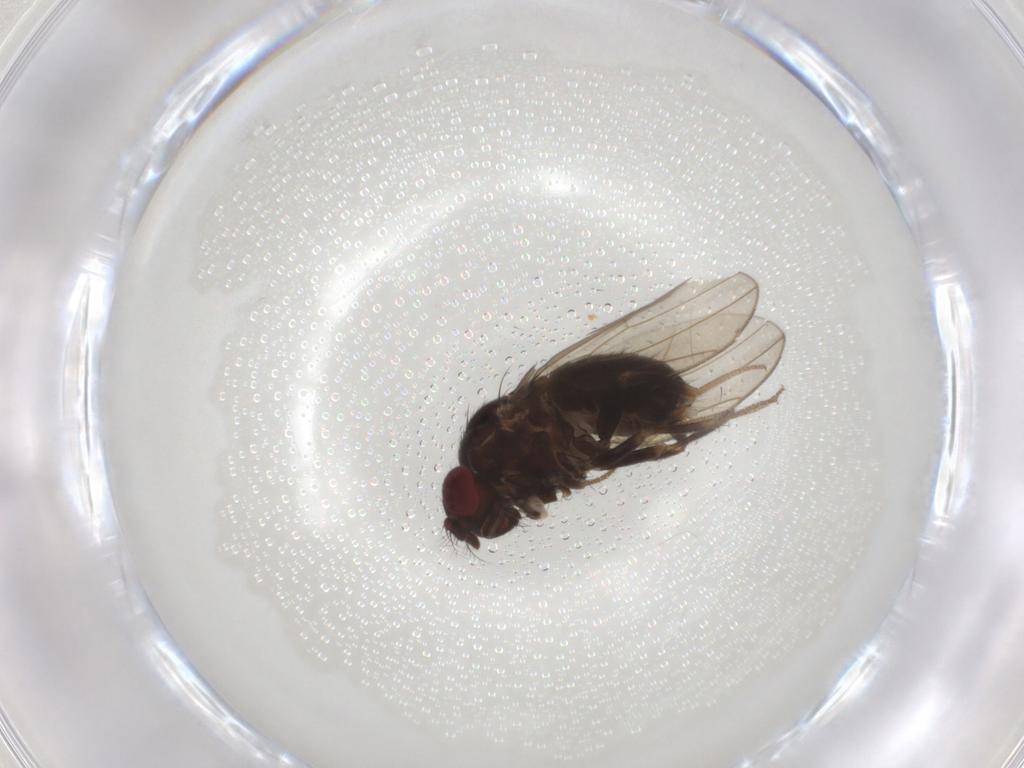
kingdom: Animalia
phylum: Arthropoda
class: Insecta
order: Diptera
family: Drosophilidae
